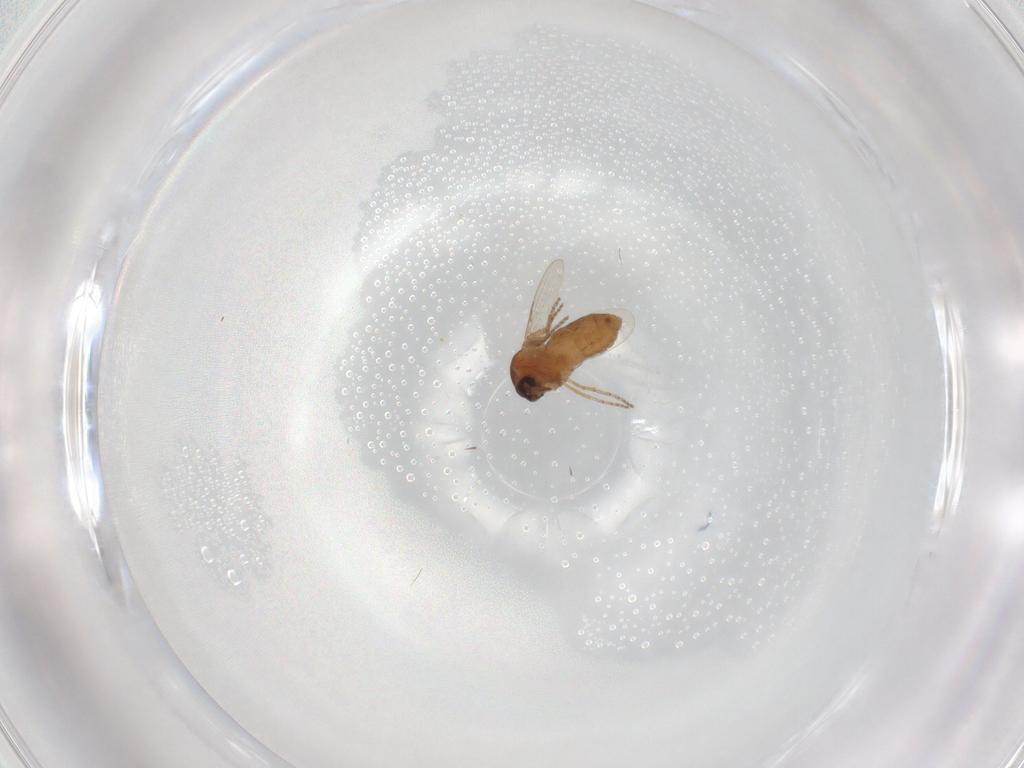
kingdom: Animalia
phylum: Arthropoda
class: Insecta
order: Diptera
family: Ceratopogonidae
